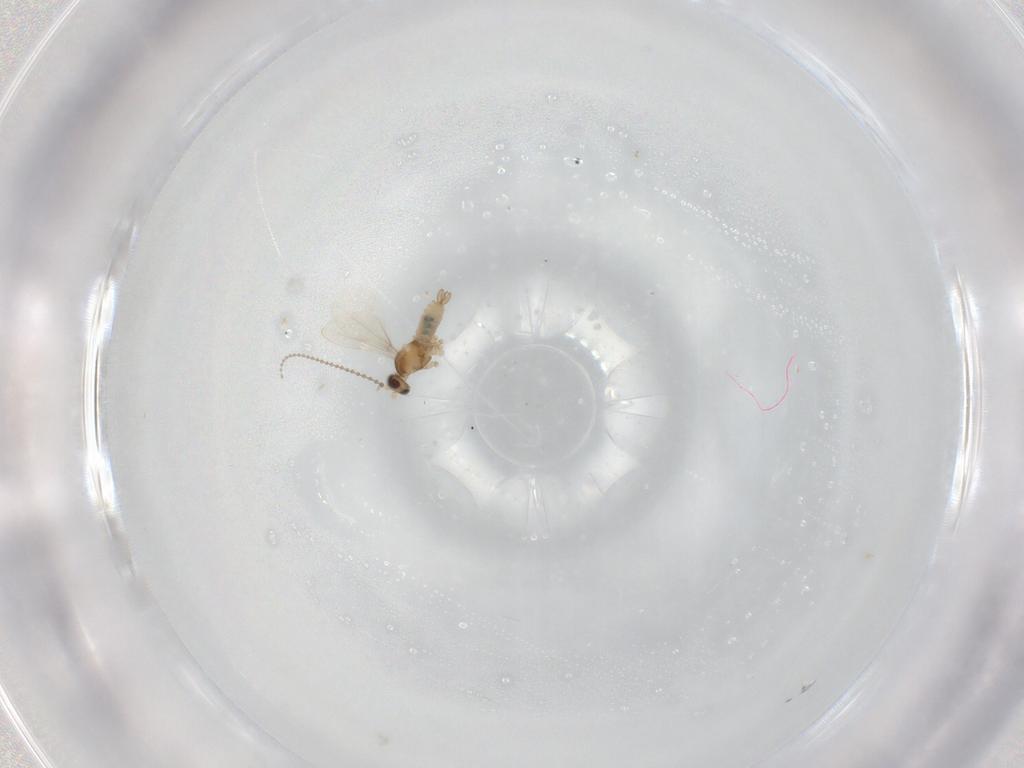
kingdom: Animalia
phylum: Arthropoda
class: Insecta
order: Diptera
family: Cecidomyiidae
